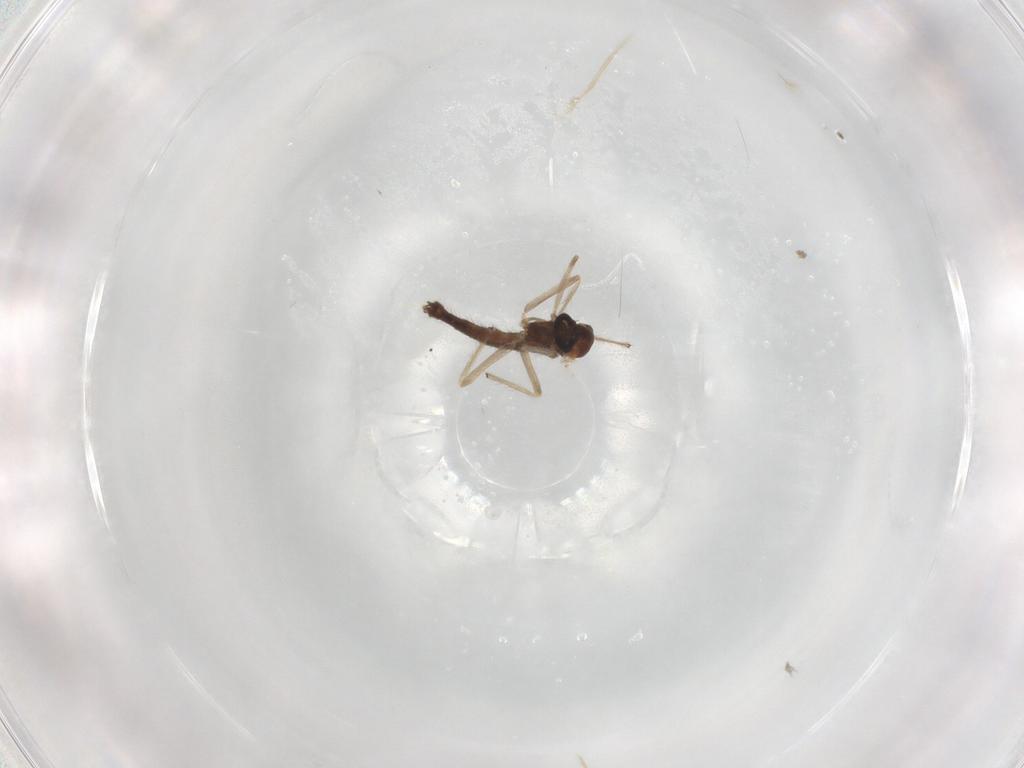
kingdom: Animalia
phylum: Arthropoda
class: Insecta
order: Diptera
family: Chironomidae
